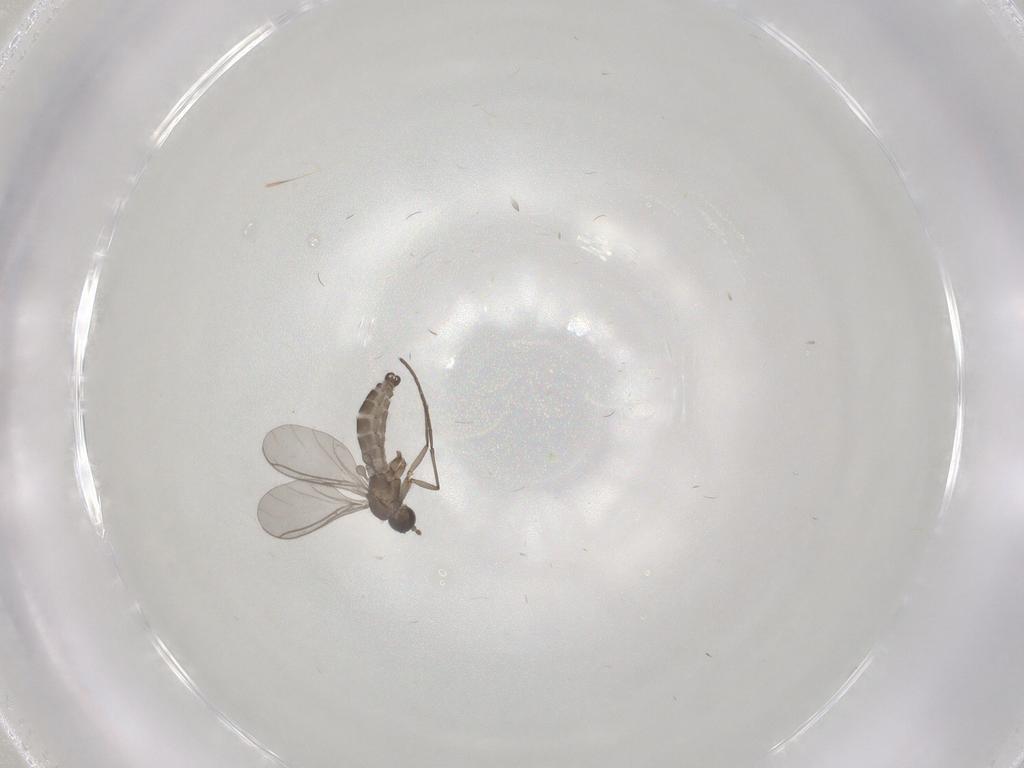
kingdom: Animalia
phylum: Arthropoda
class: Insecta
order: Diptera
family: Sciaridae
